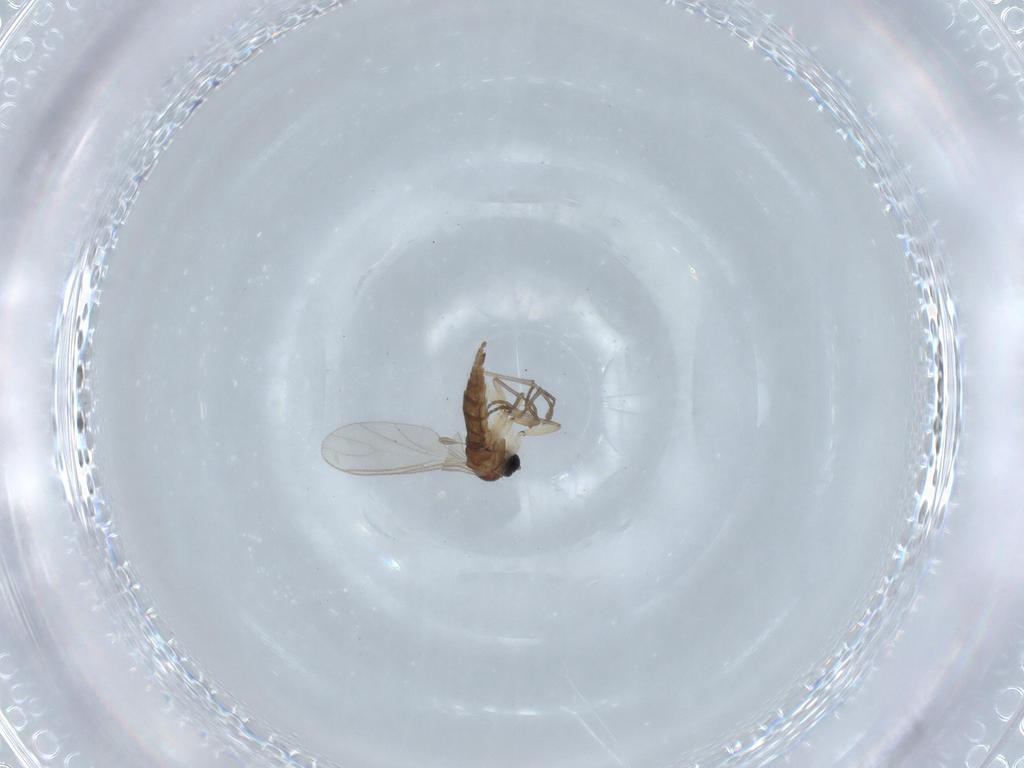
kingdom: Animalia
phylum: Arthropoda
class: Insecta
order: Diptera
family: Sciaridae
